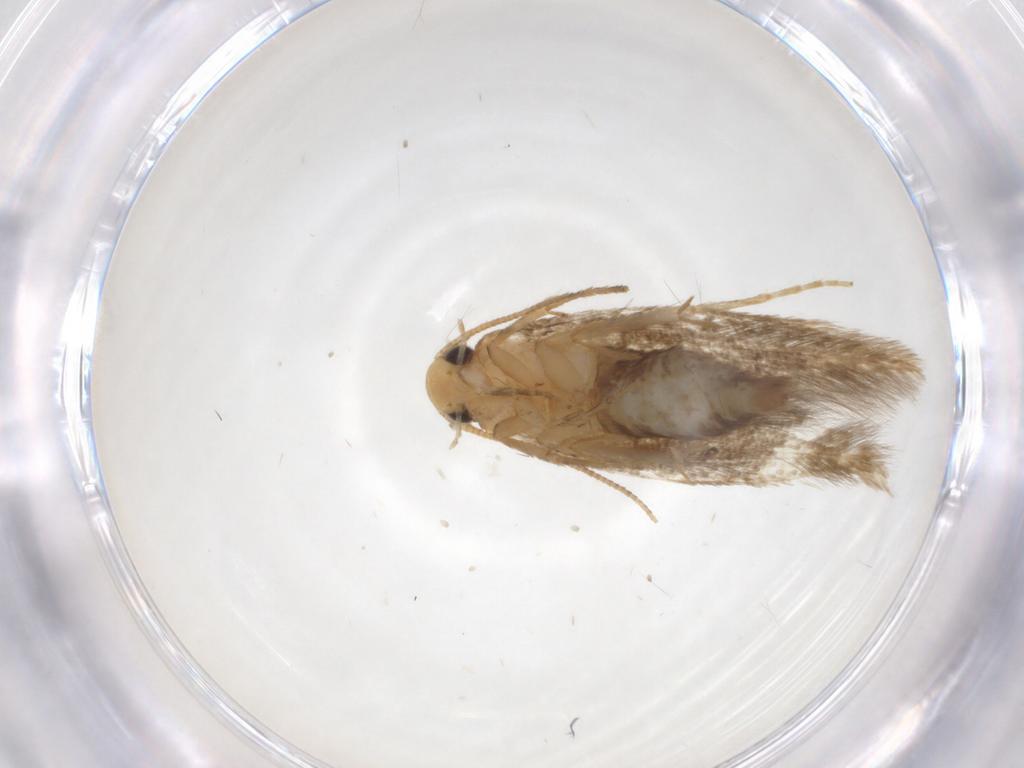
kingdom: Animalia
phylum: Arthropoda
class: Insecta
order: Lepidoptera
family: Tineidae
